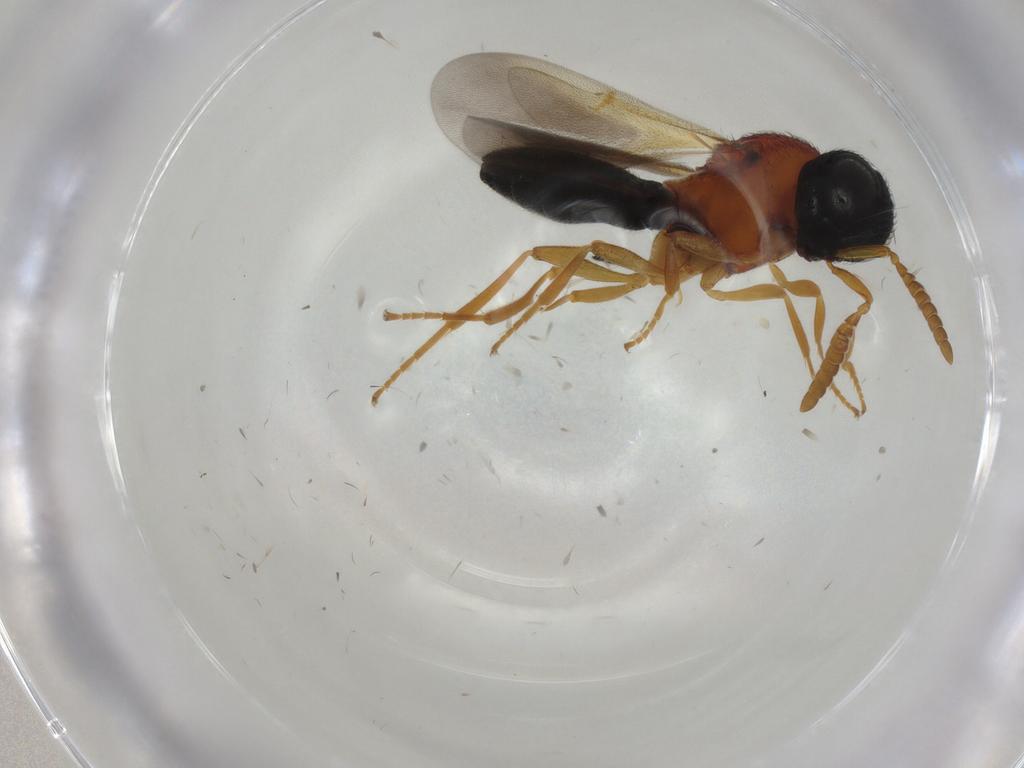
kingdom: Animalia
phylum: Arthropoda
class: Insecta
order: Hymenoptera
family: Scelionidae
